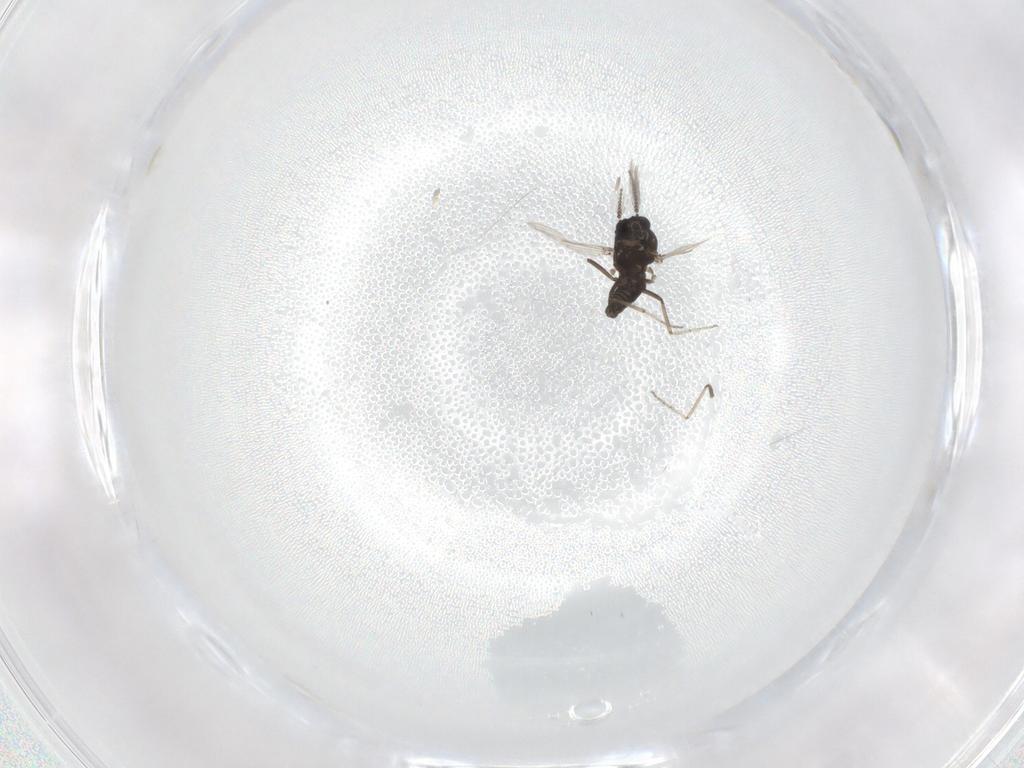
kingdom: Animalia
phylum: Arthropoda
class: Insecta
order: Diptera
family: Ceratopogonidae
